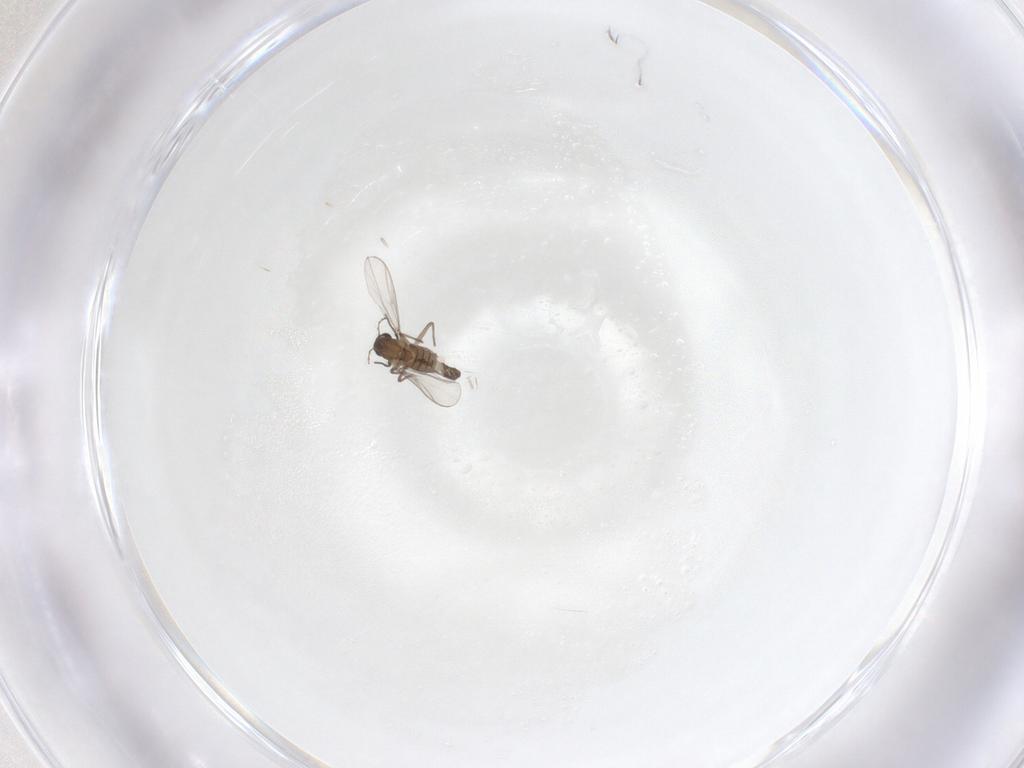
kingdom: Animalia
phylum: Arthropoda
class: Insecta
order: Diptera
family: Chironomidae
